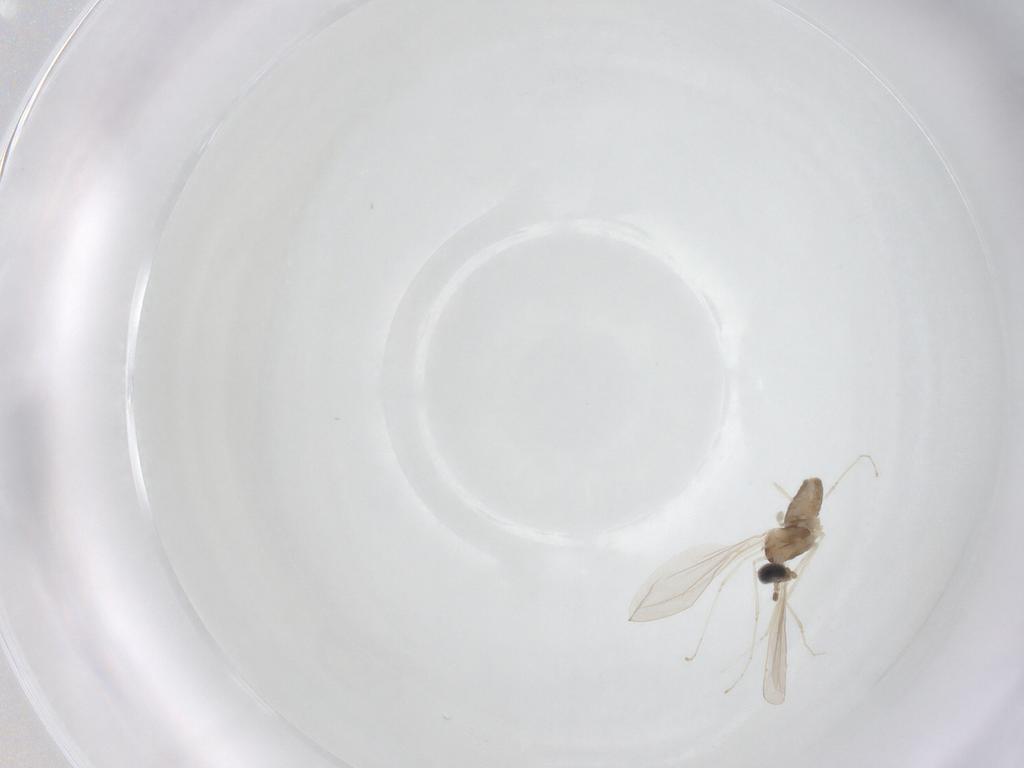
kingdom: Animalia
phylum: Arthropoda
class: Insecta
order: Diptera
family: Cecidomyiidae
